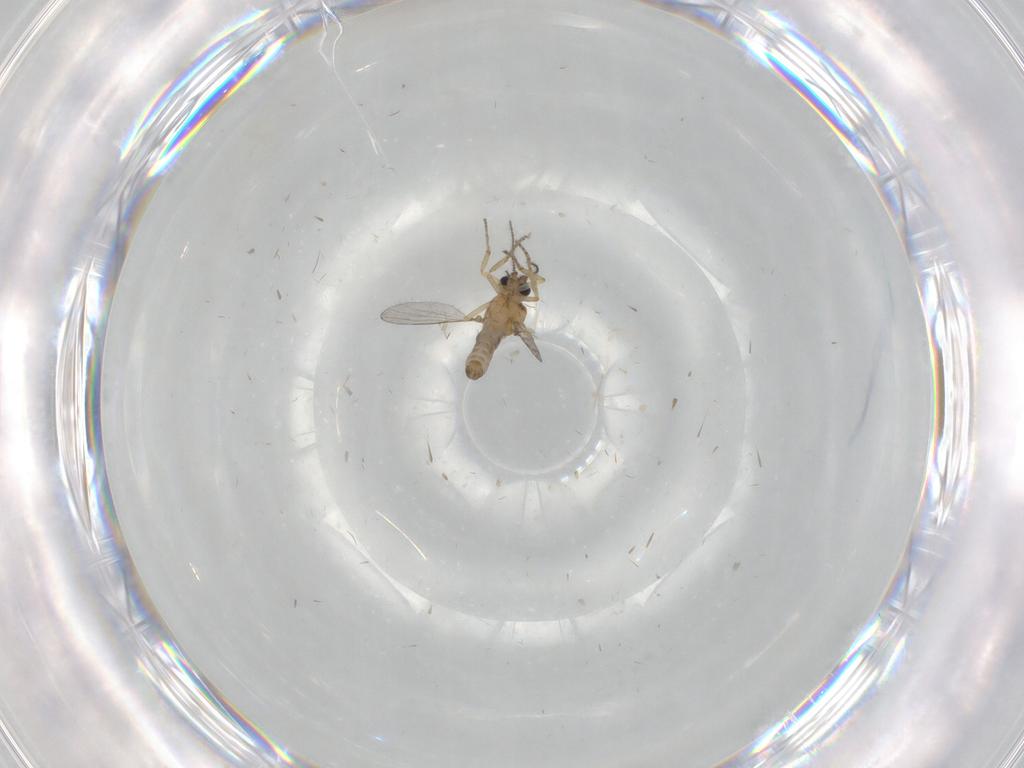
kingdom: Animalia
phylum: Arthropoda
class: Insecta
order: Diptera
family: Ceratopogonidae
